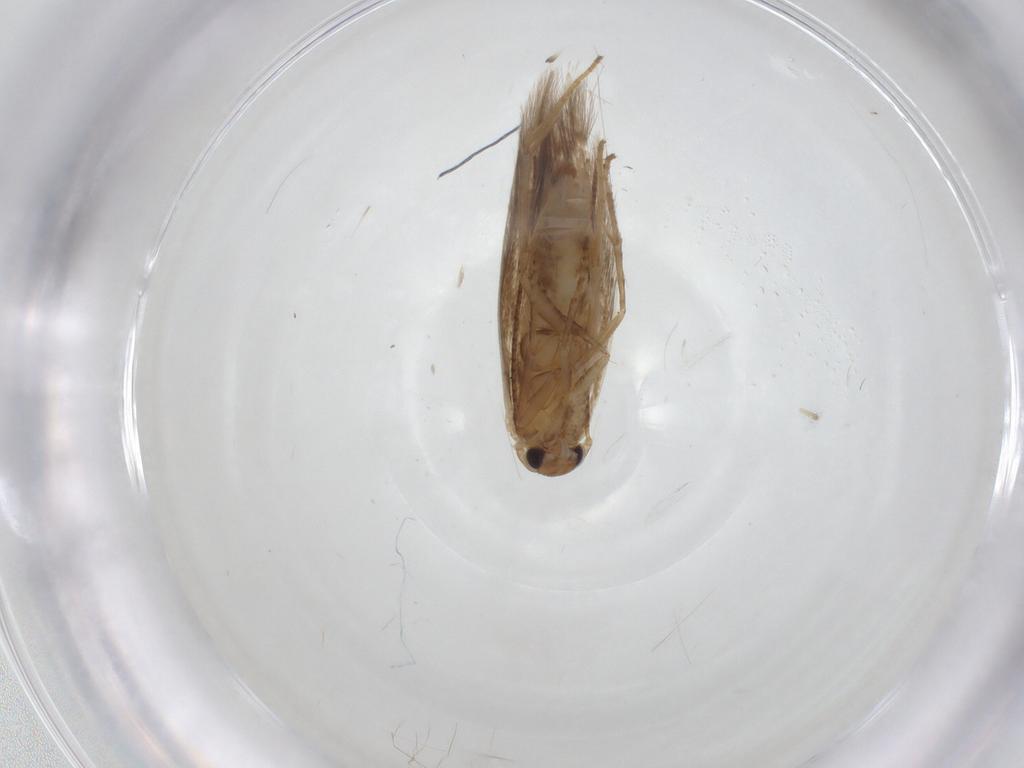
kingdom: Animalia
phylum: Arthropoda
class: Insecta
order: Lepidoptera
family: Bucculatricidae
